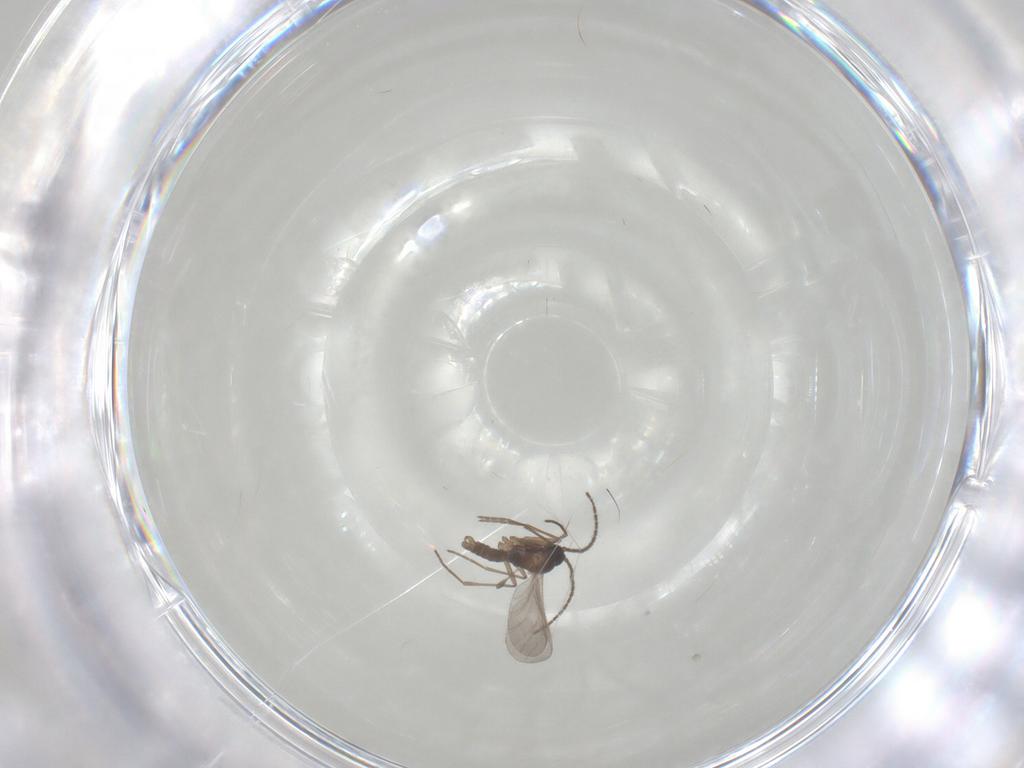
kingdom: Animalia
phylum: Arthropoda
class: Insecta
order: Diptera
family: Sciaridae
